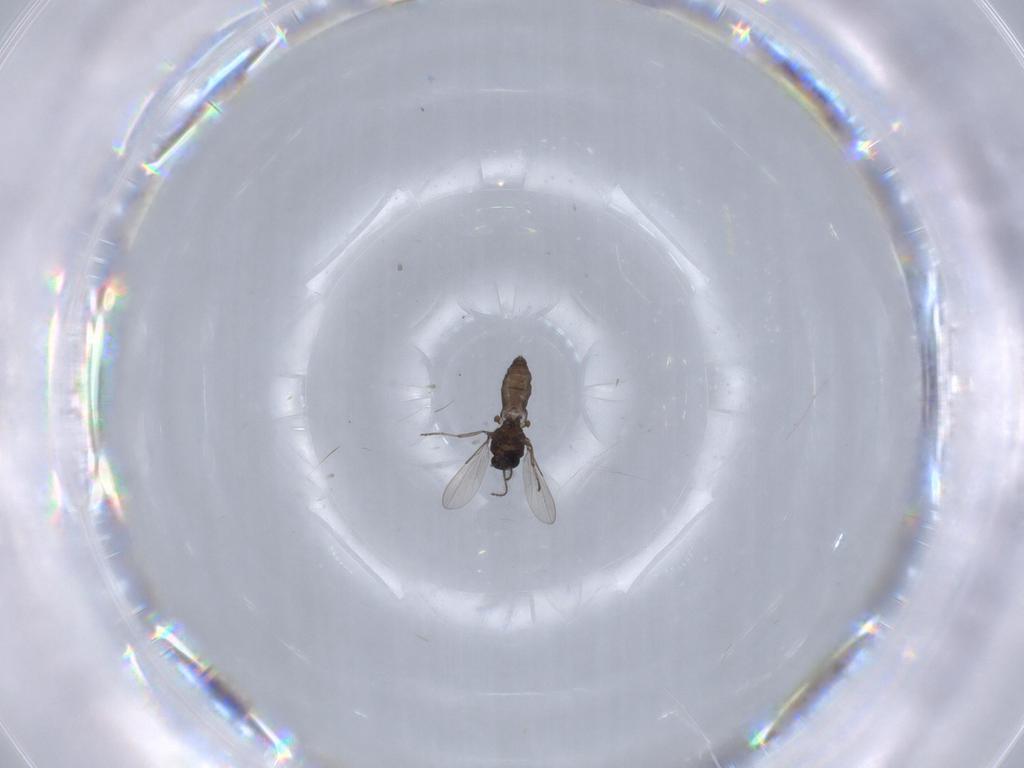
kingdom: Animalia
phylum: Arthropoda
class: Insecta
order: Diptera
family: Ceratopogonidae
